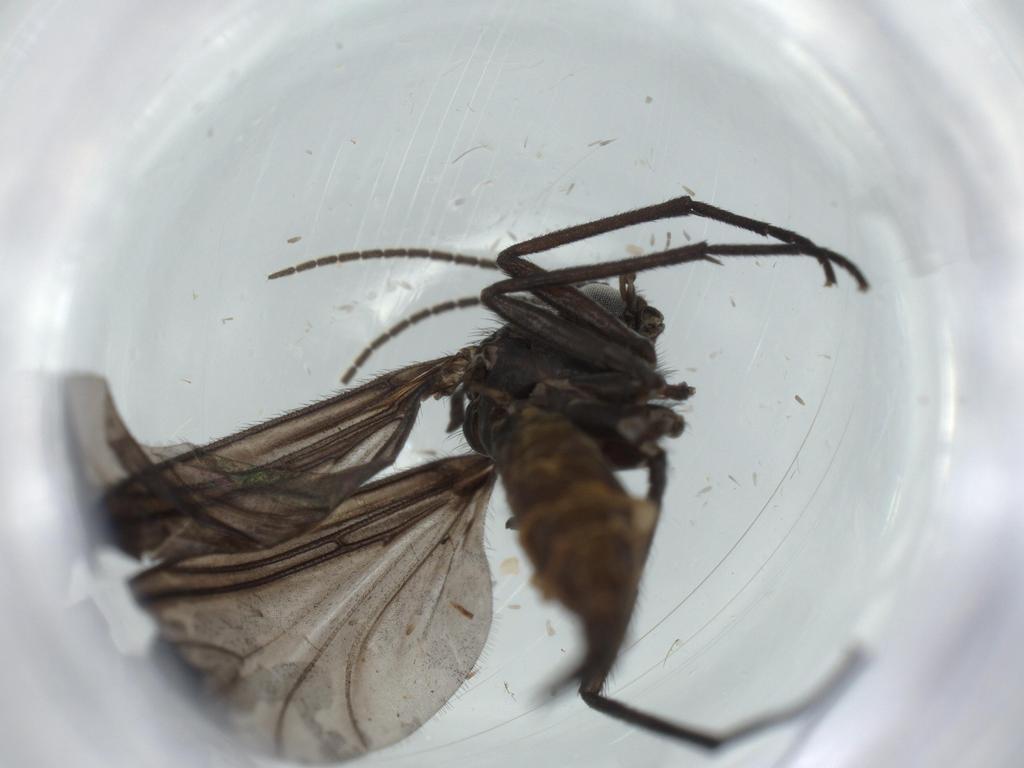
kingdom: Animalia
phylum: Arthropoda
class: Insecta
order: Diptera
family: Sciaridae
